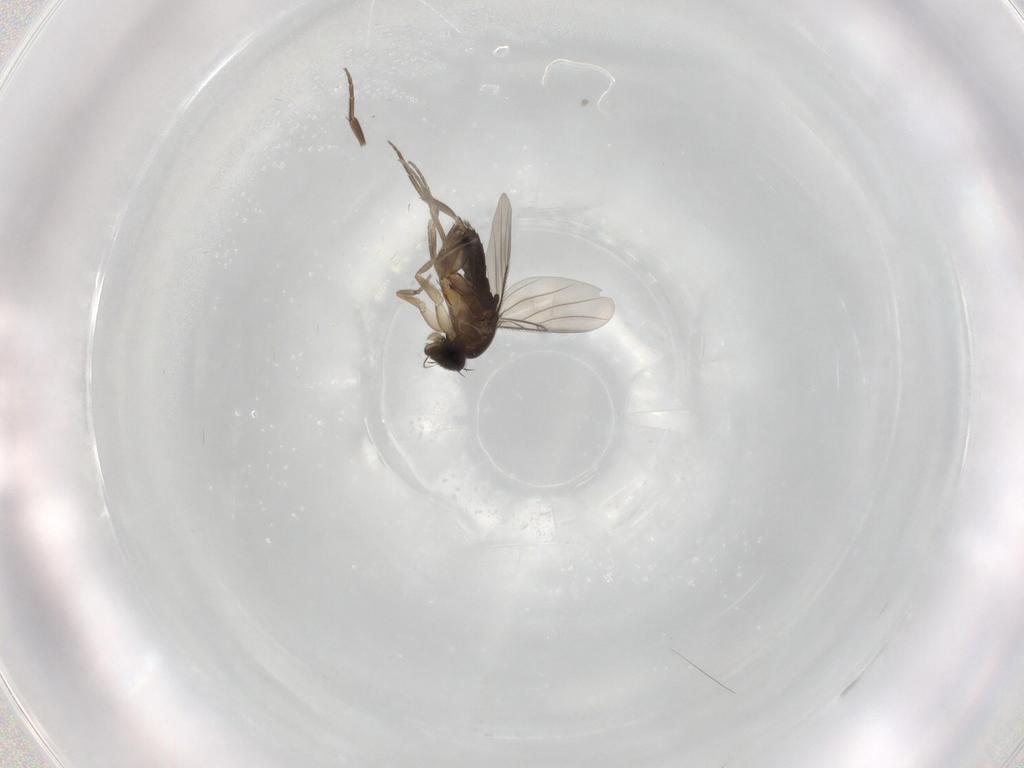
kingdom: Animalia
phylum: Arthropoda
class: Insecta
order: Diptera
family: Phoridae
